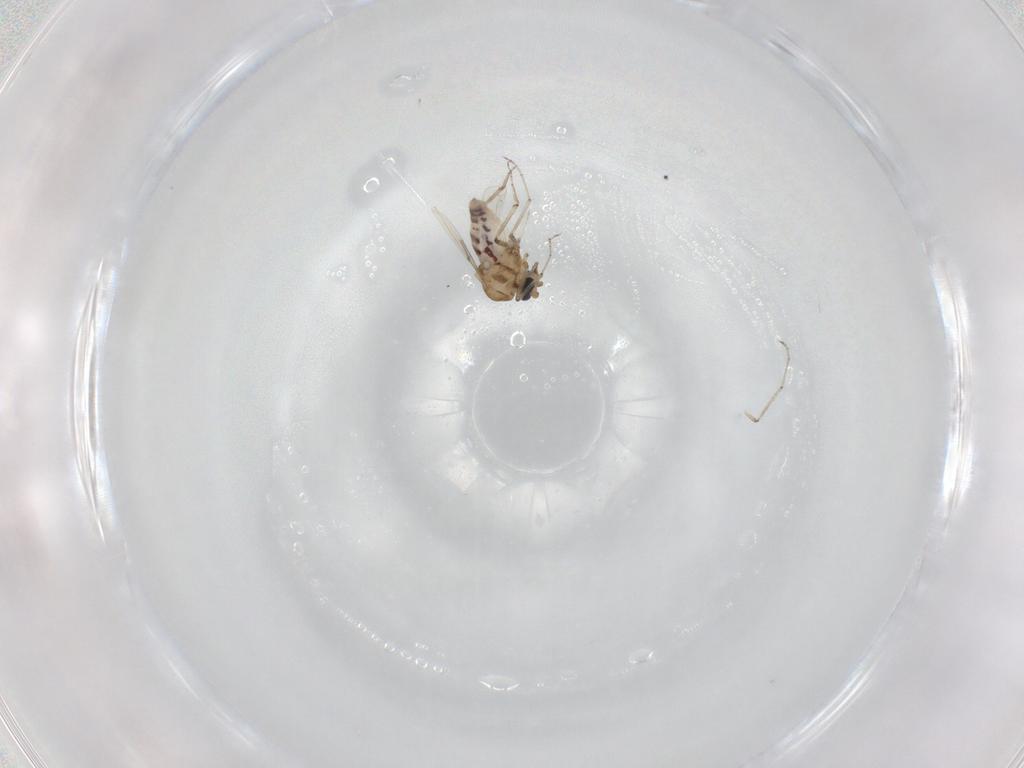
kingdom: Animalia
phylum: Arthropoda
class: Insecta
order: Diptera
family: Ceratopogonidae
